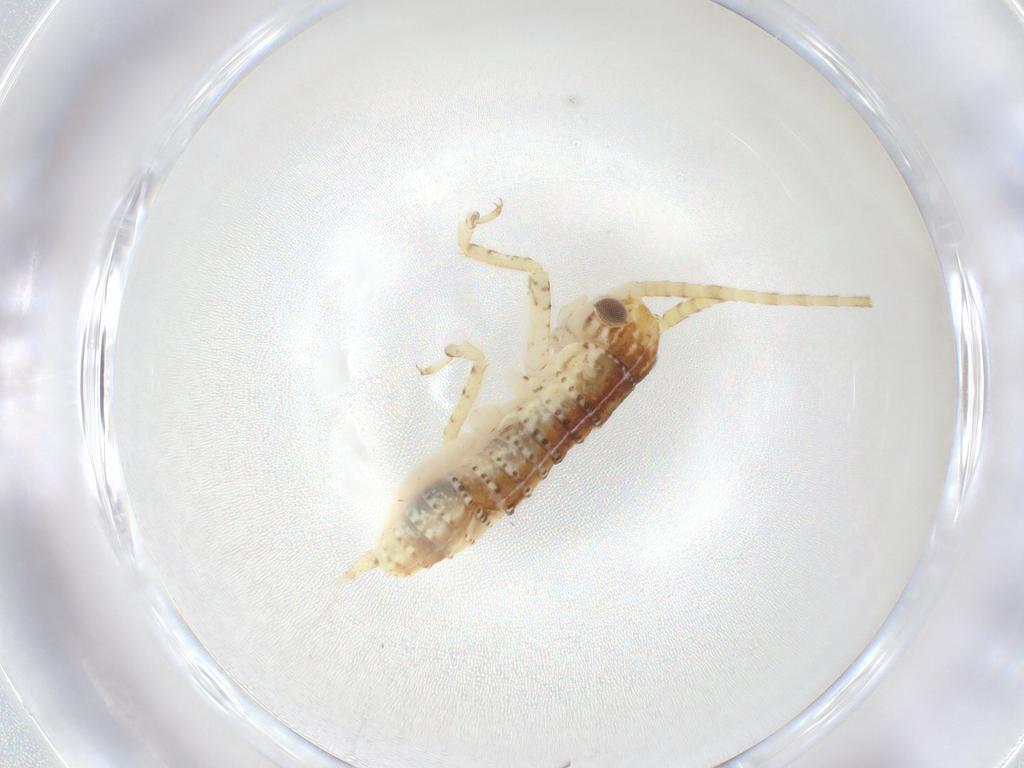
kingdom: Animalia
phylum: Arthropoda
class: Insecta
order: Orthoptera
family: Gryllidae
